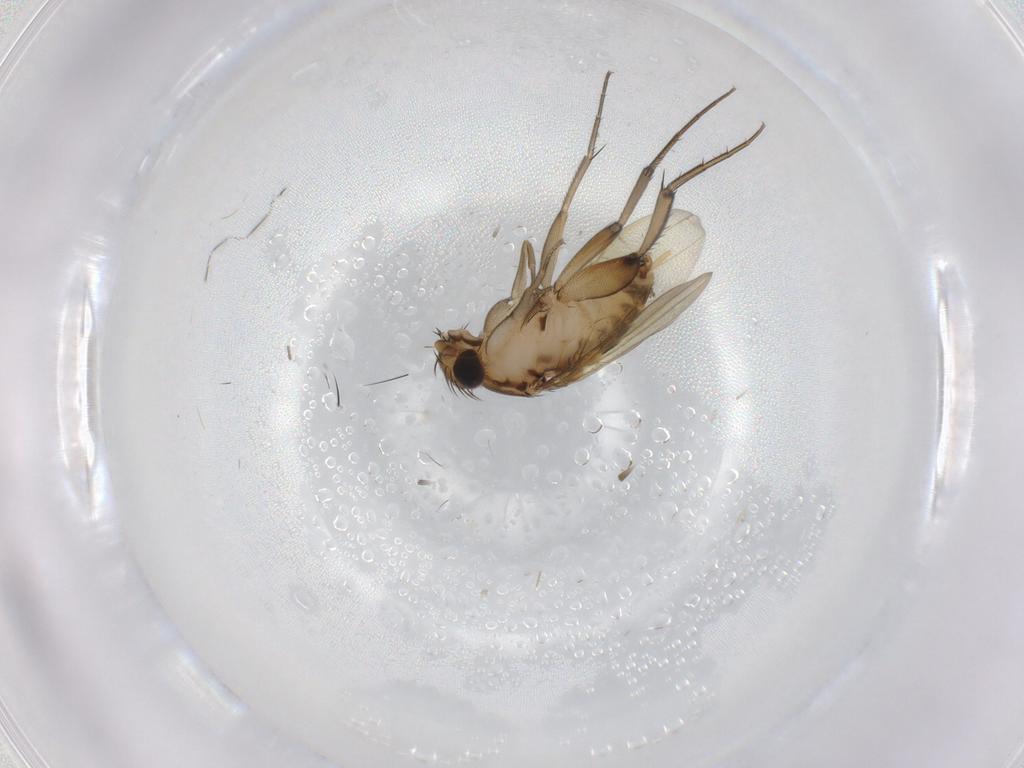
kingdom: Animalia
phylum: Arthropoda
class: Insecta
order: Diptera
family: Phoridae
